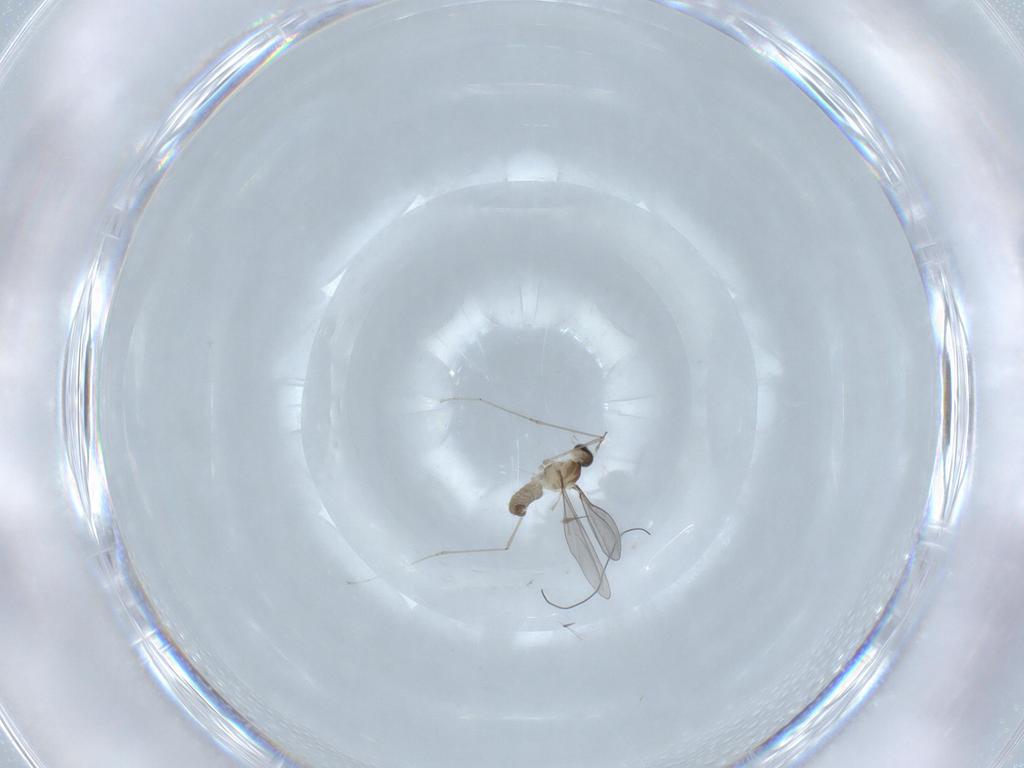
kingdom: Animalia
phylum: Arthropoda
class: Insecta
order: Diptera
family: Cecidomyiidae
